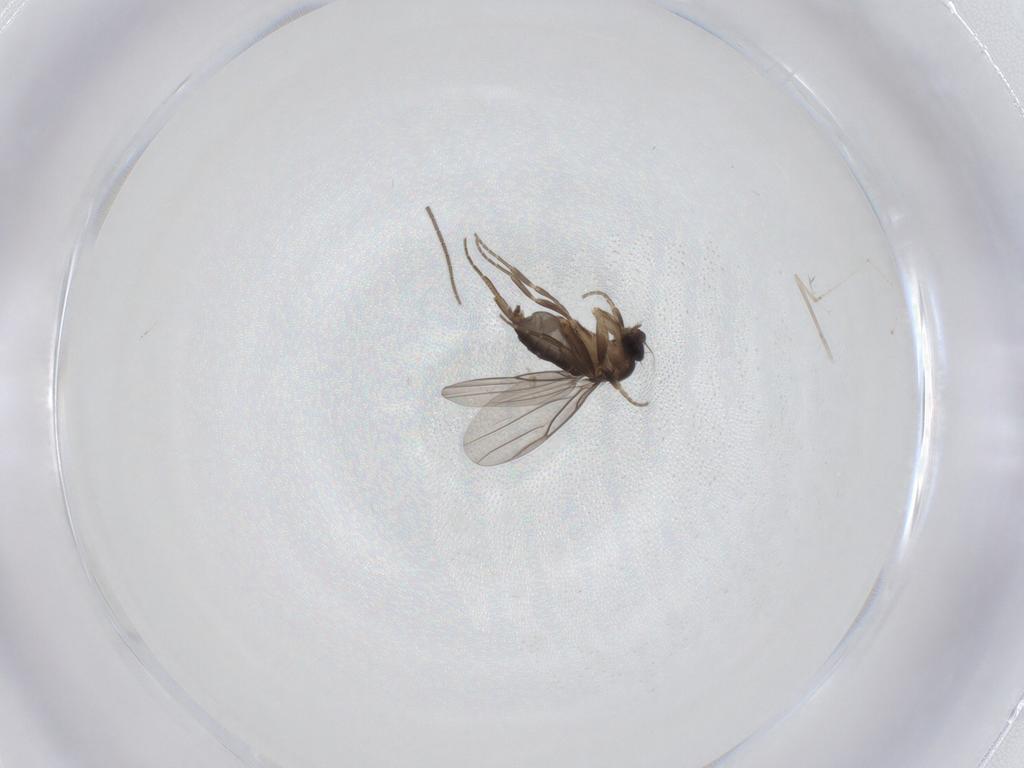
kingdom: Animalia
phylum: Arthropoda
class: Insecta
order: Diptera
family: Sciaridae
